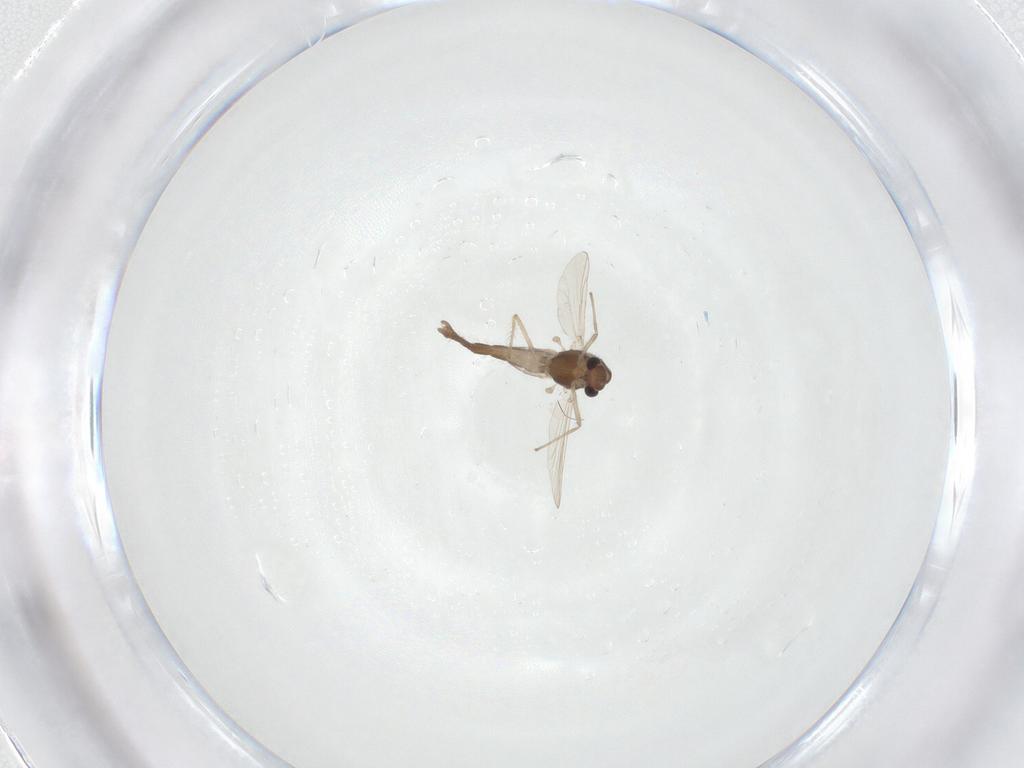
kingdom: Animalia
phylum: Arthropoda
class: Insecta
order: Diptera
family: Chironomidae
